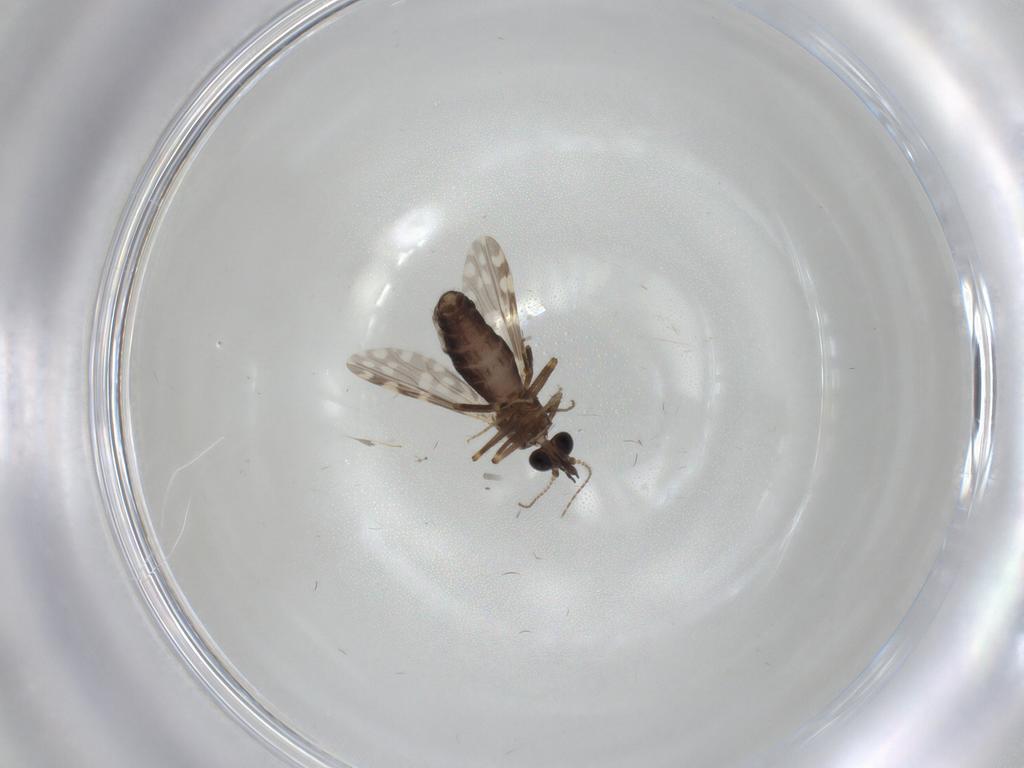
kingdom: Animalia
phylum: Arthropoda
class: Insecta
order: Diptera
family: Ceratopogonidae
